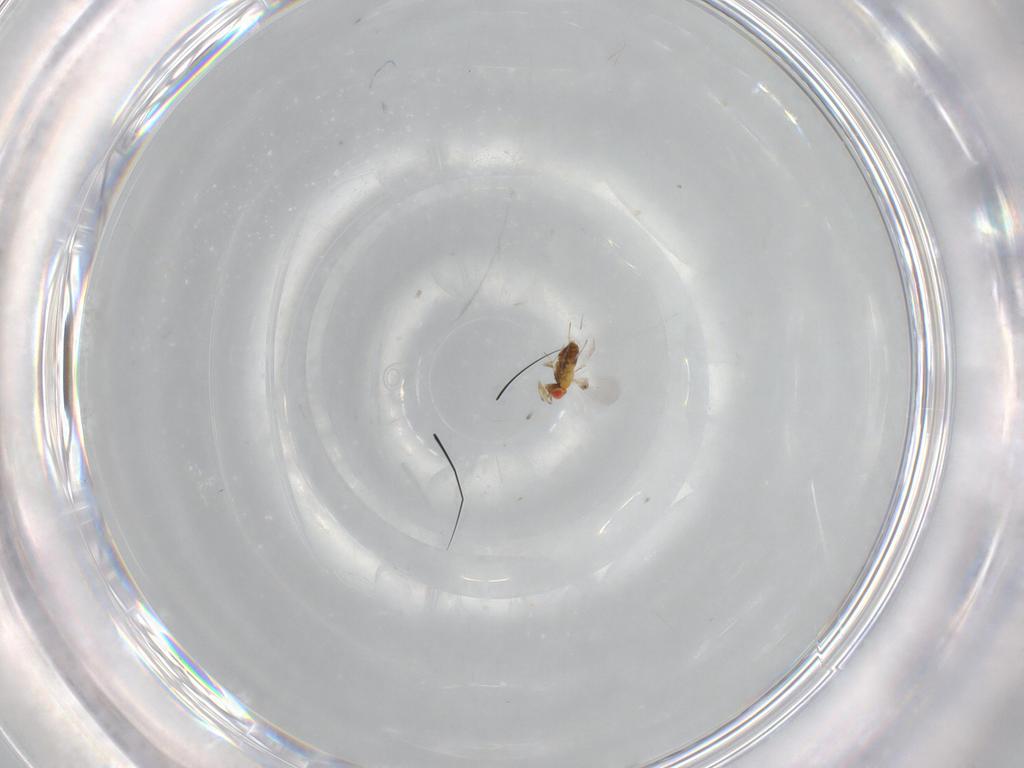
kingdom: Animalia
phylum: Arthropoda
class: Insecta
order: Hymenoptera
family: Trichogrammatidae
